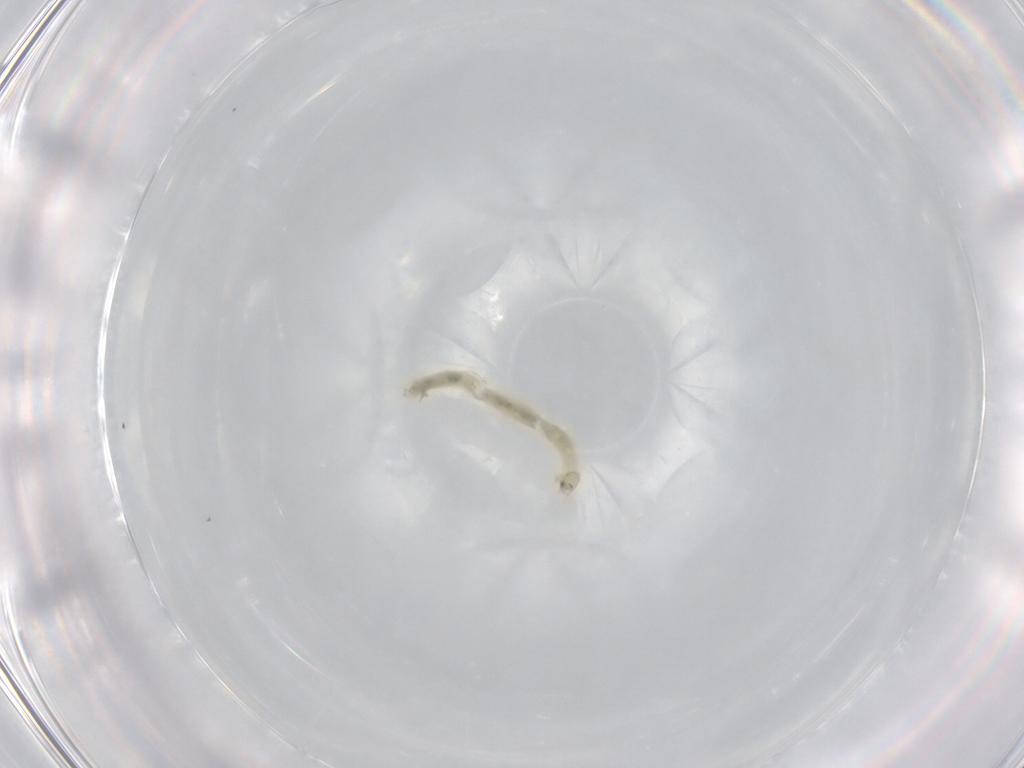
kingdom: Animalia
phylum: Arthropoda
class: Insecta
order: Diptera
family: Chironomidae
